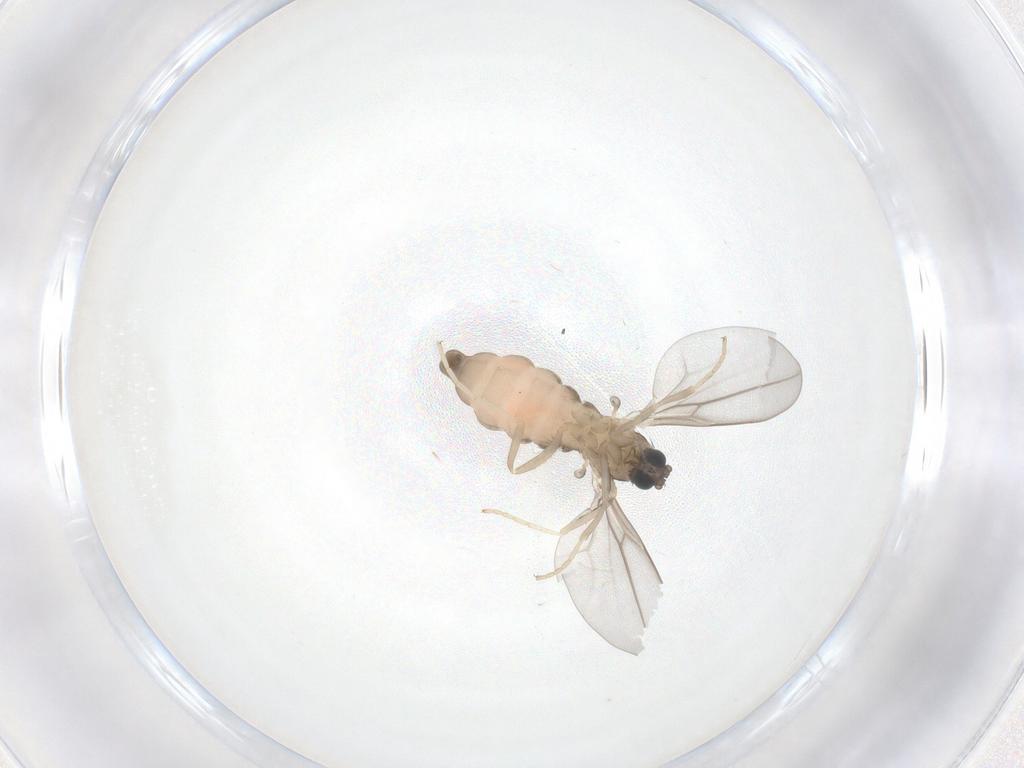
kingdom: Animalia
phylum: Arthropoda
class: Insecta
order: Diptera
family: Cecidomyiidae
